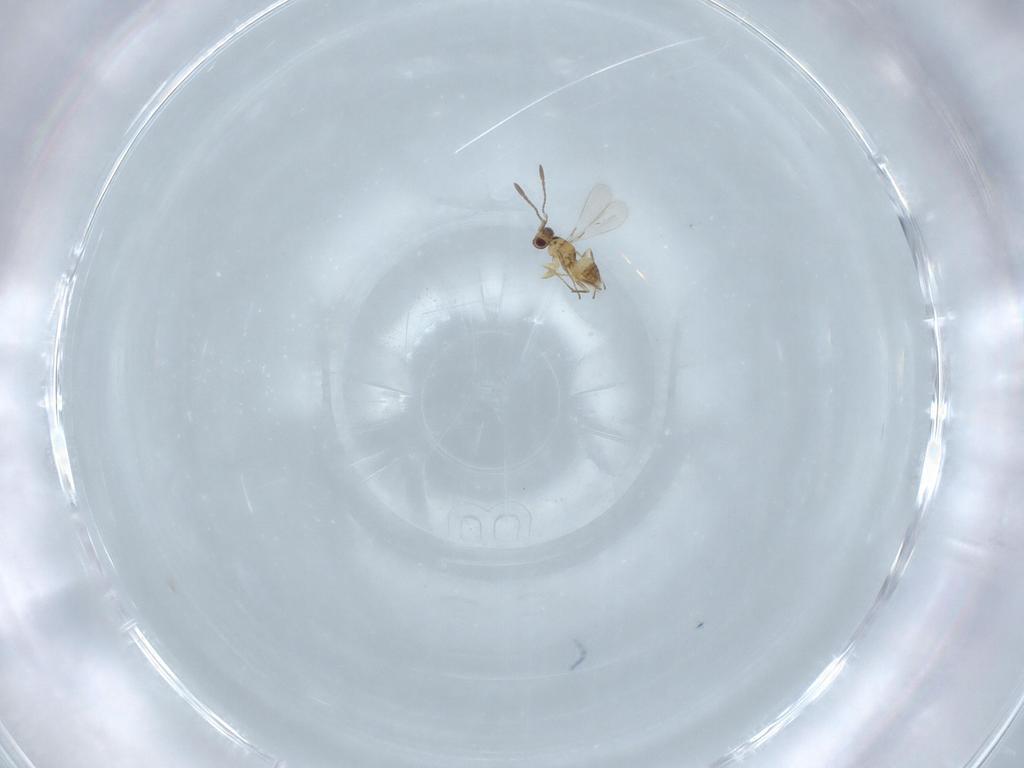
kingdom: Animalia
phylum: Arthropoda
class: Insecta
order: Hymenoptera
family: Mymaridae
